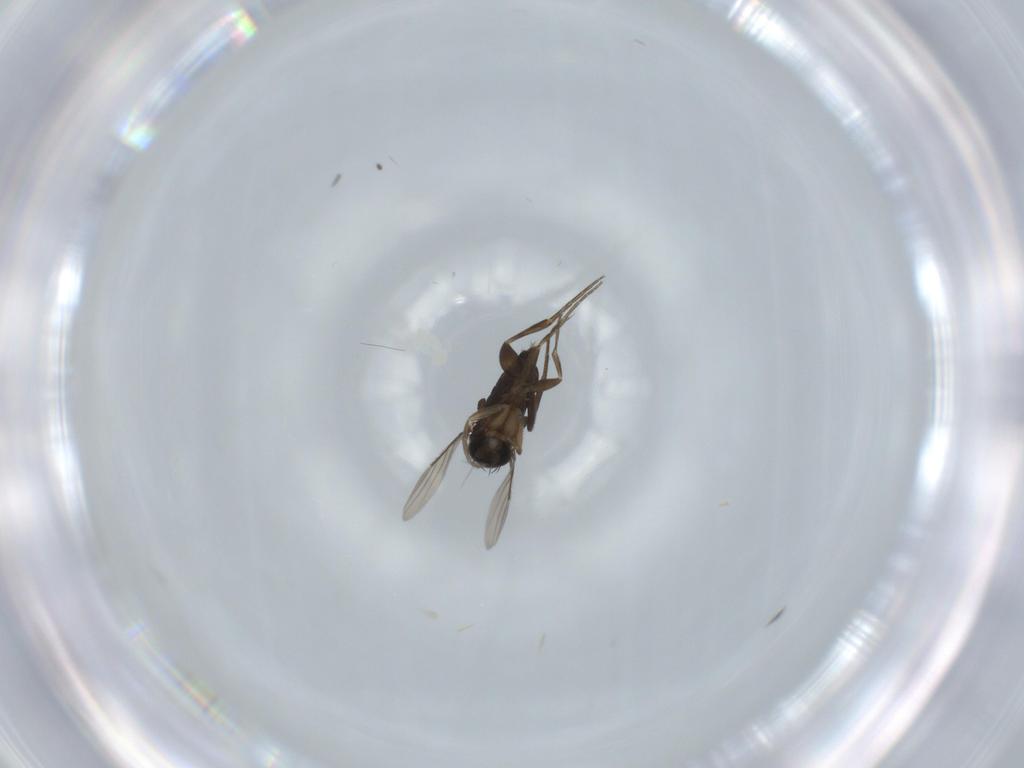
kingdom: Animalia
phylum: Arthropoda
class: Insecta
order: Diptera
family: Phoridae
